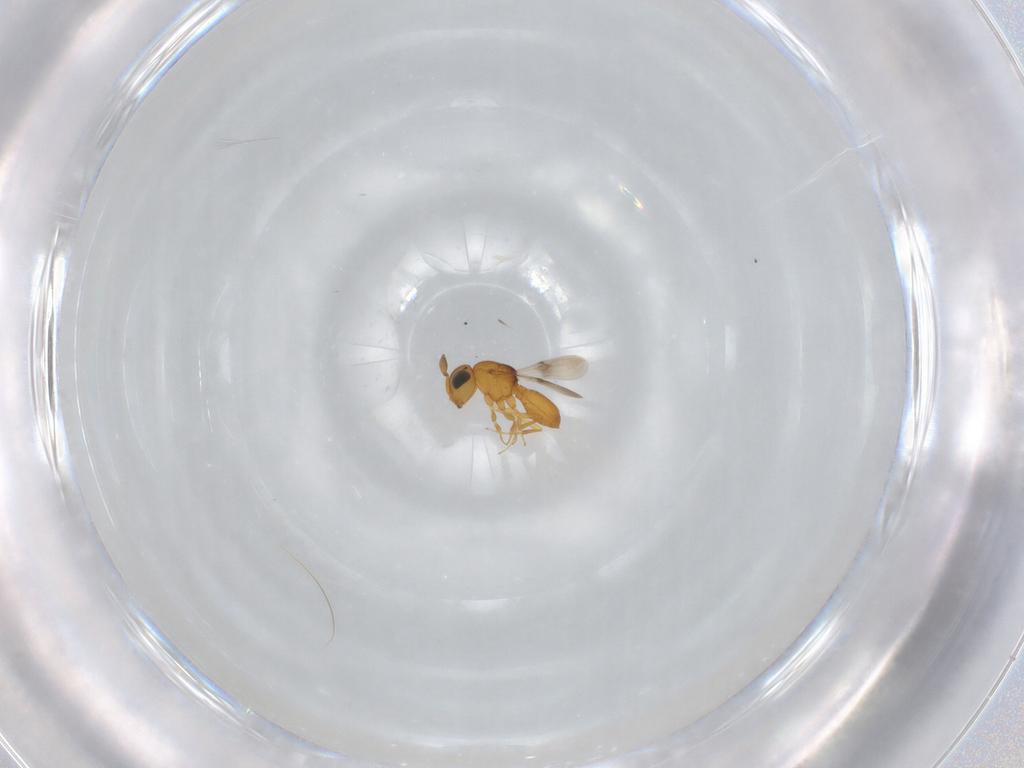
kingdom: Animalia
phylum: Arthropoda
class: Insecta
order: Hymenoptera
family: Scelionidae
